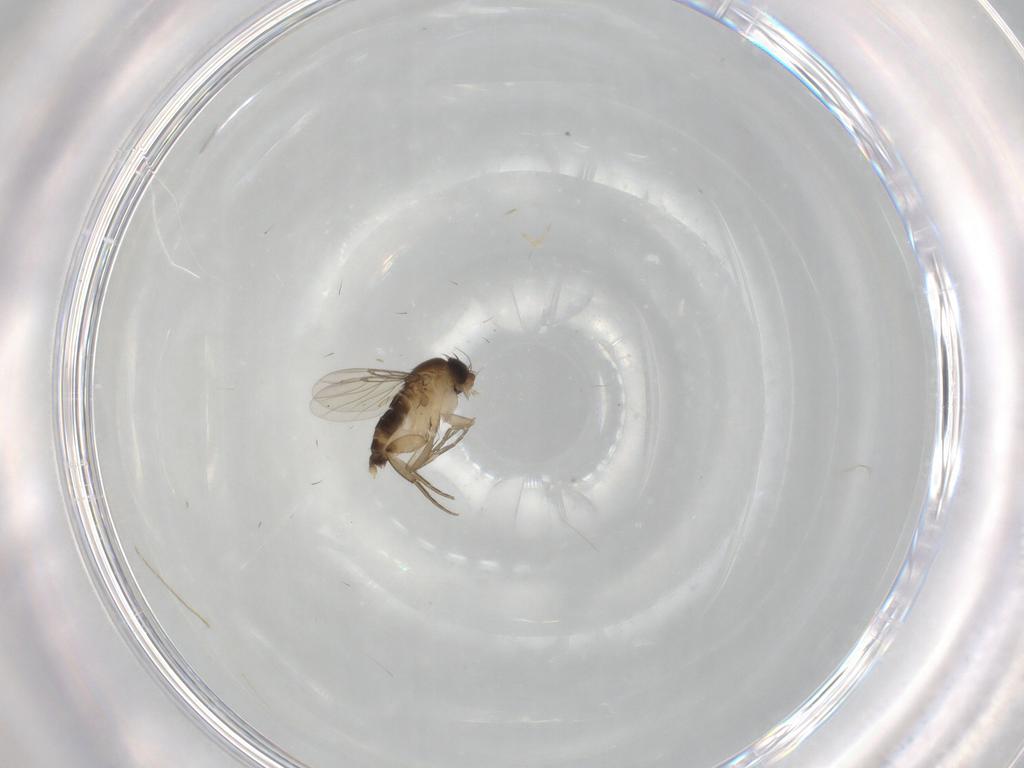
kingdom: Animalia
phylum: Arthropoda
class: Insecta
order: Diptera
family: Phoridae
